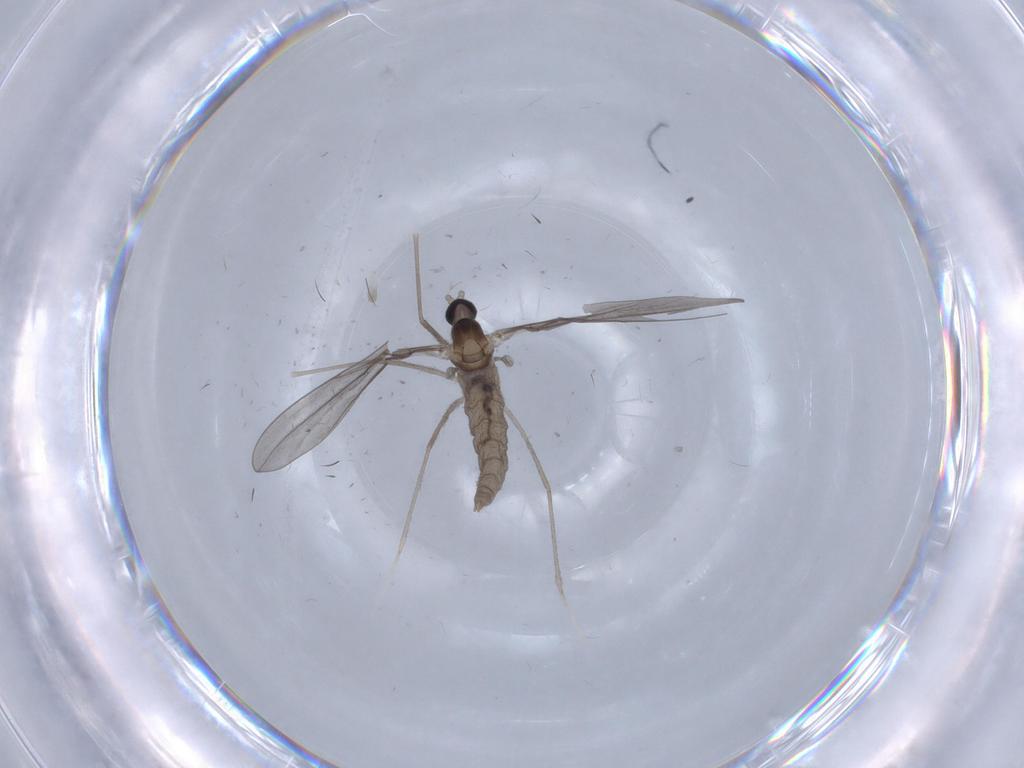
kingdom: Animalia
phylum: Arthropoda
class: Insecta
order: Diptera
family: Cecidomyiidae
